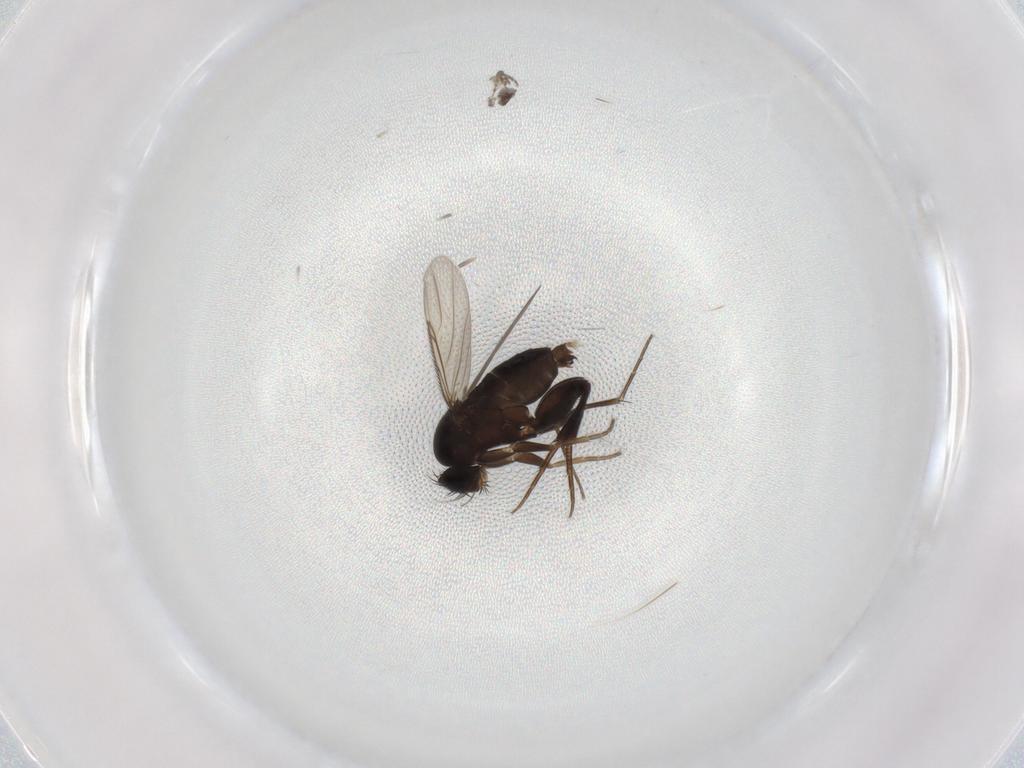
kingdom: Animalia
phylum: Arthropoda
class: Insecta
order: Diptera
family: Phoridae
